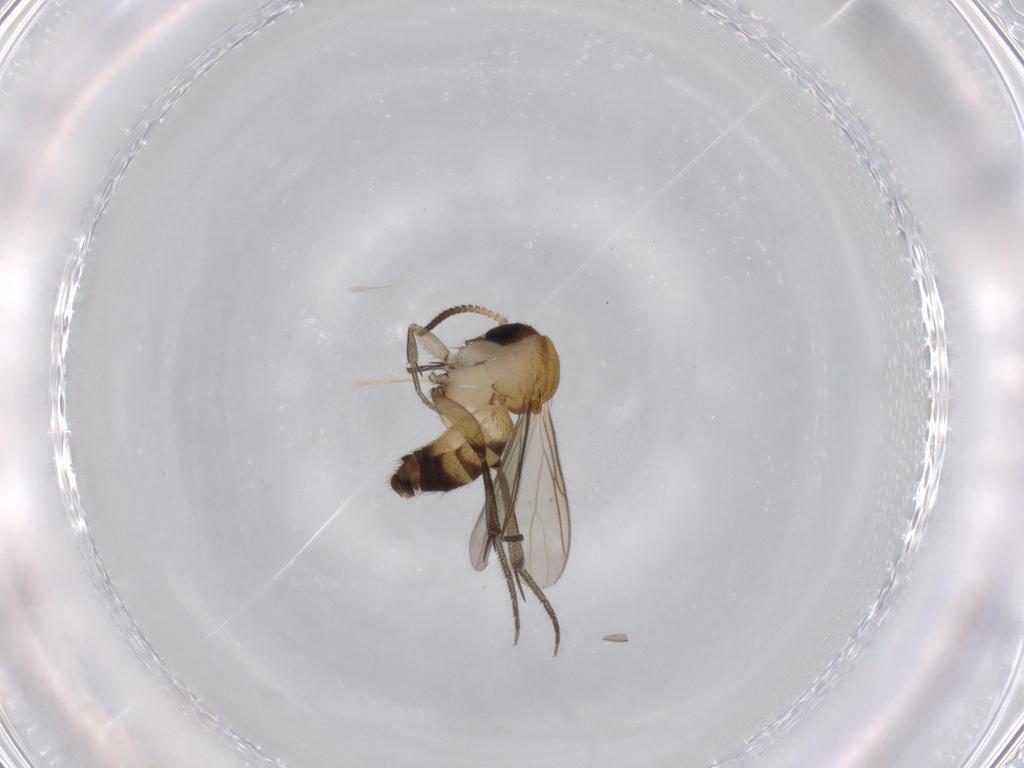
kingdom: Animalia
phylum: Arthropoda
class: Insecta
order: Diptera
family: Cecidomyiidae
